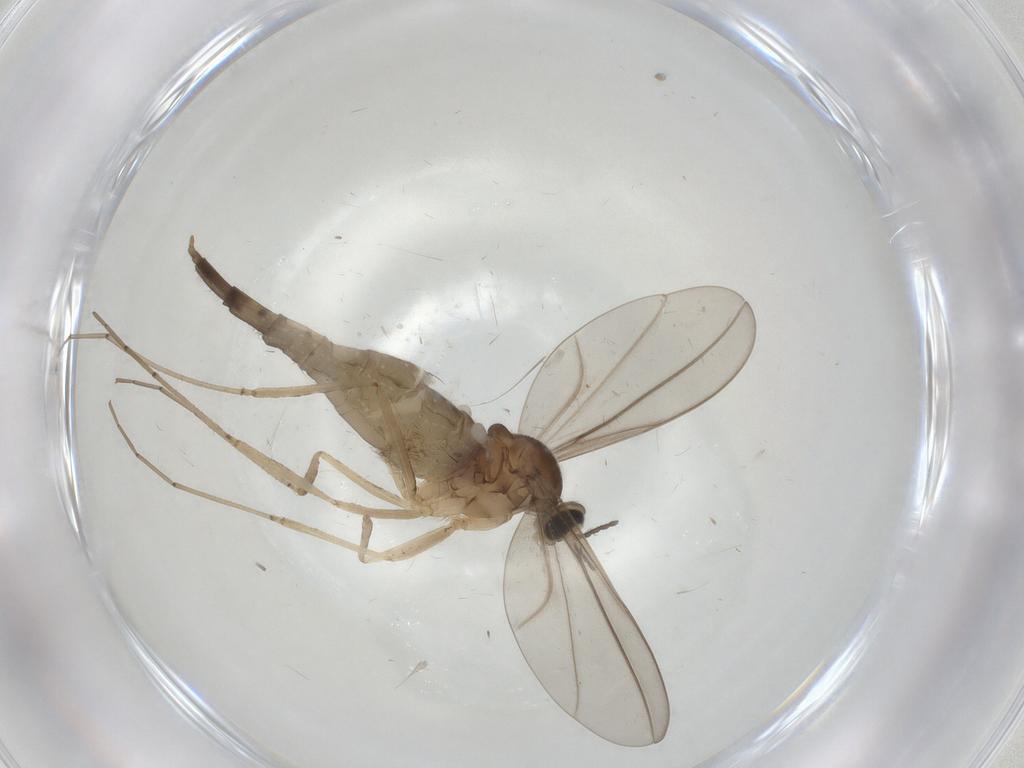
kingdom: Animalia
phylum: Arthropoda
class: Insecta
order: Diptera
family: Cecidomyiidae
